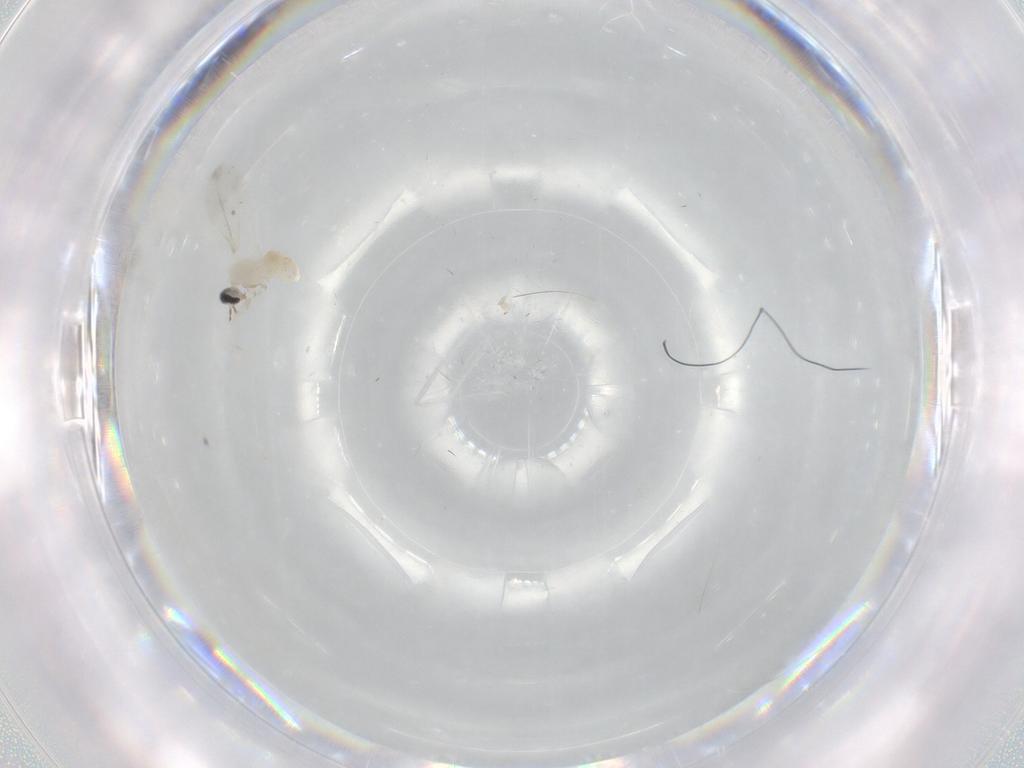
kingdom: Animalia
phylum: Arthropoda
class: Insecta
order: Diptera
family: Cecidomyiidae
